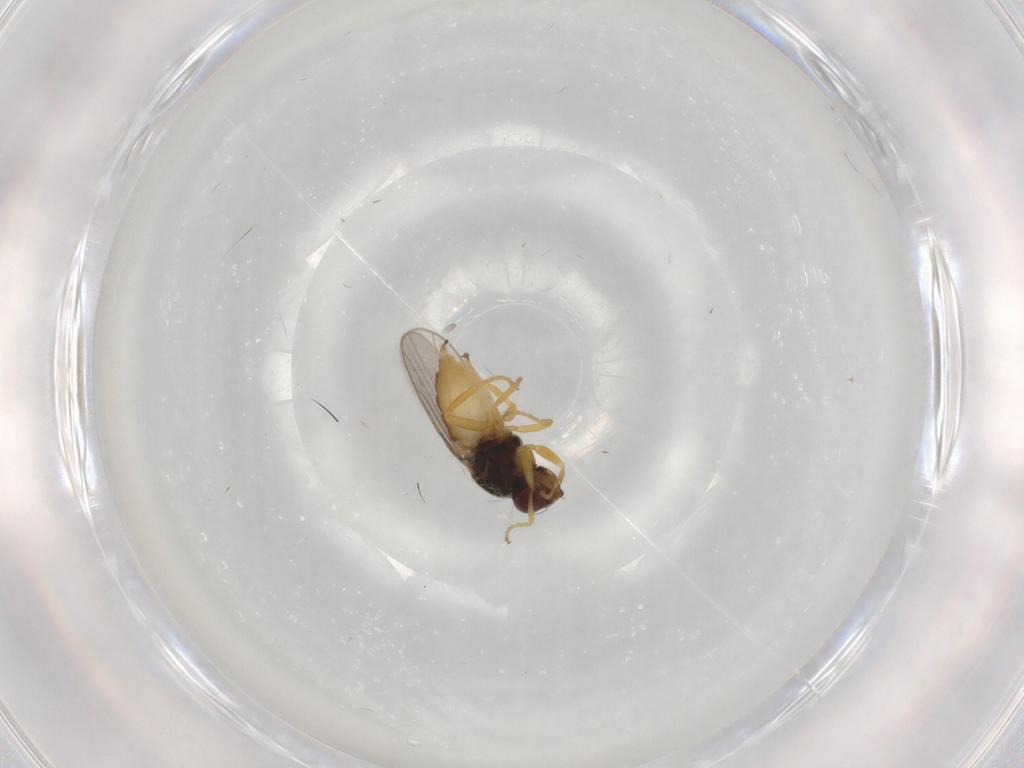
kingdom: Animalia
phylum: Arthropoda
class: Insecta
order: Diptera
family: Chloropidae
